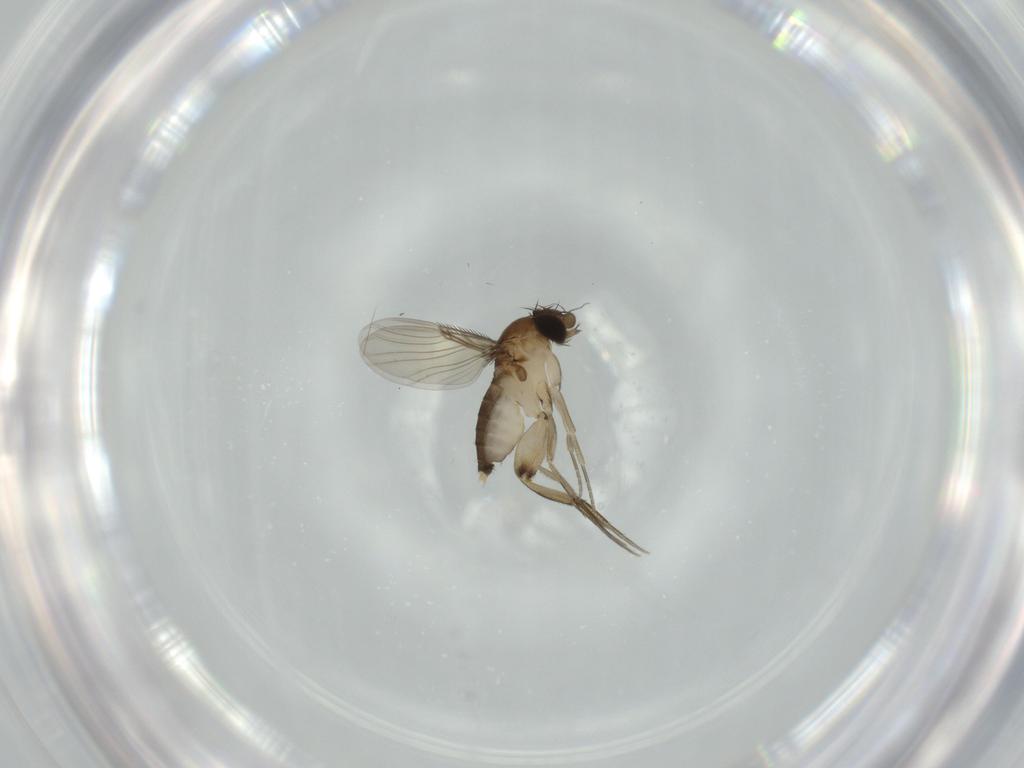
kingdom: Animalia
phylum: Arthropoda
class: Insecta
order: Diptera
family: Phoridae
